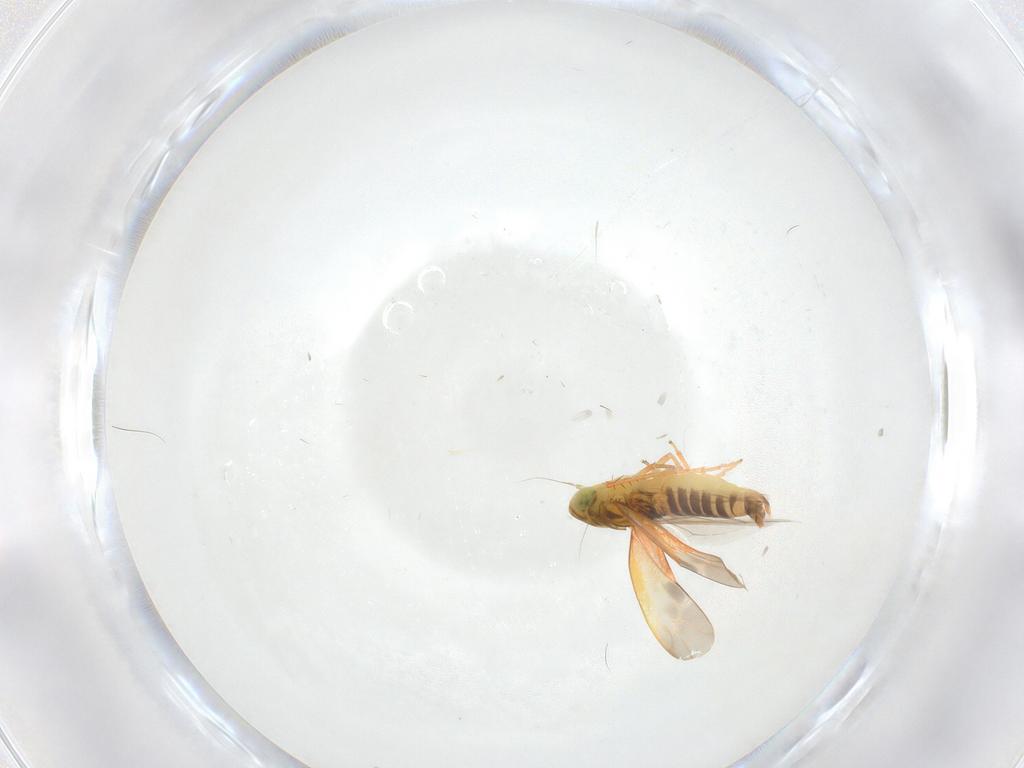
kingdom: Animalia
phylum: Arthropoda
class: Insecta
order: Hemiptera
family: Cicadellidae
